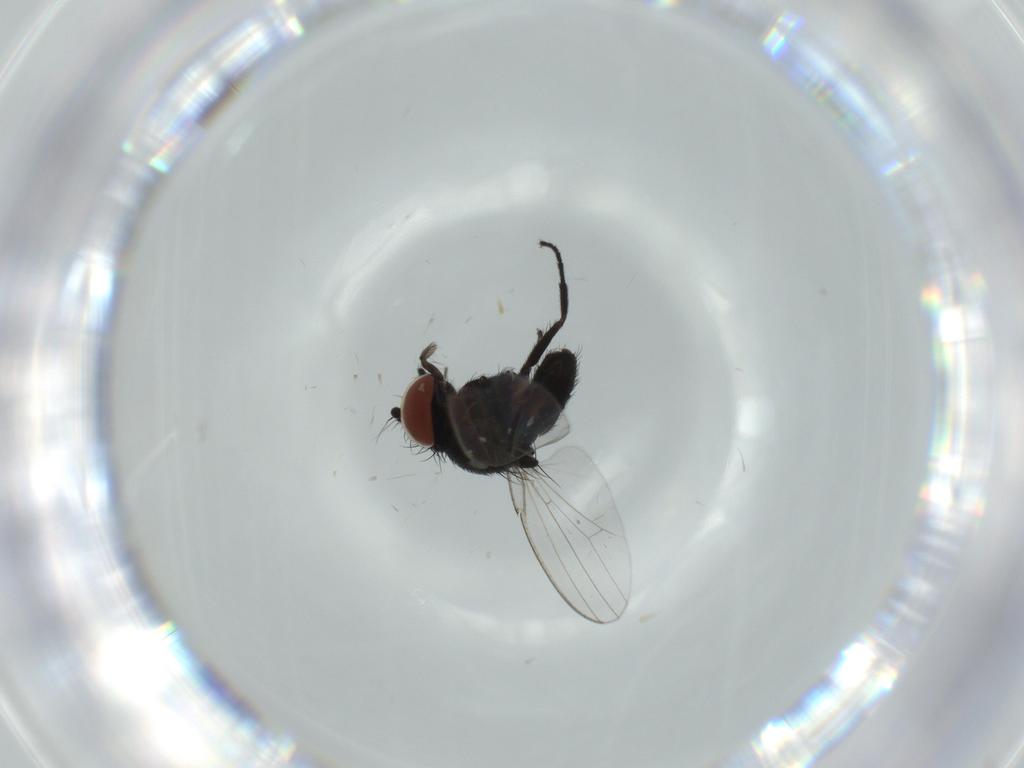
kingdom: Animalia
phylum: Arthropoda
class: Insecta
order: Diptera
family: Milichiidae
